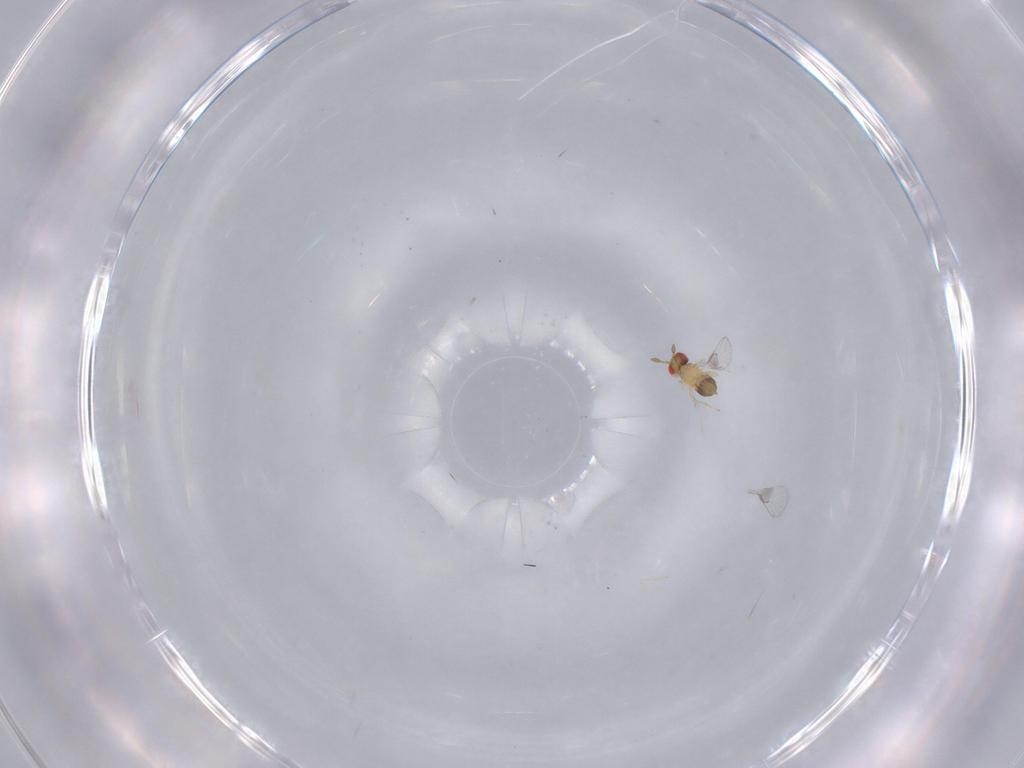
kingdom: Animalia
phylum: Arthropoda
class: Insecta
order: Hymenoptera
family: Trichogrammatidae
